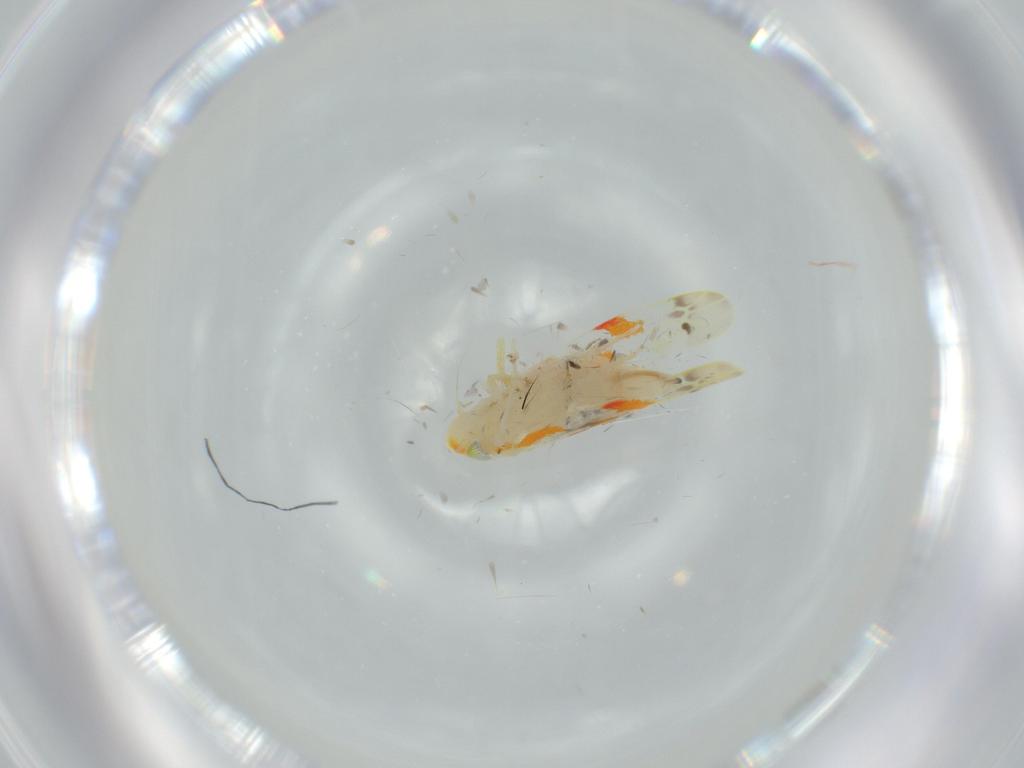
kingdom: Animalia
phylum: Arthropoda
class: Insecta
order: Hemiptera
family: Cicadellidae
